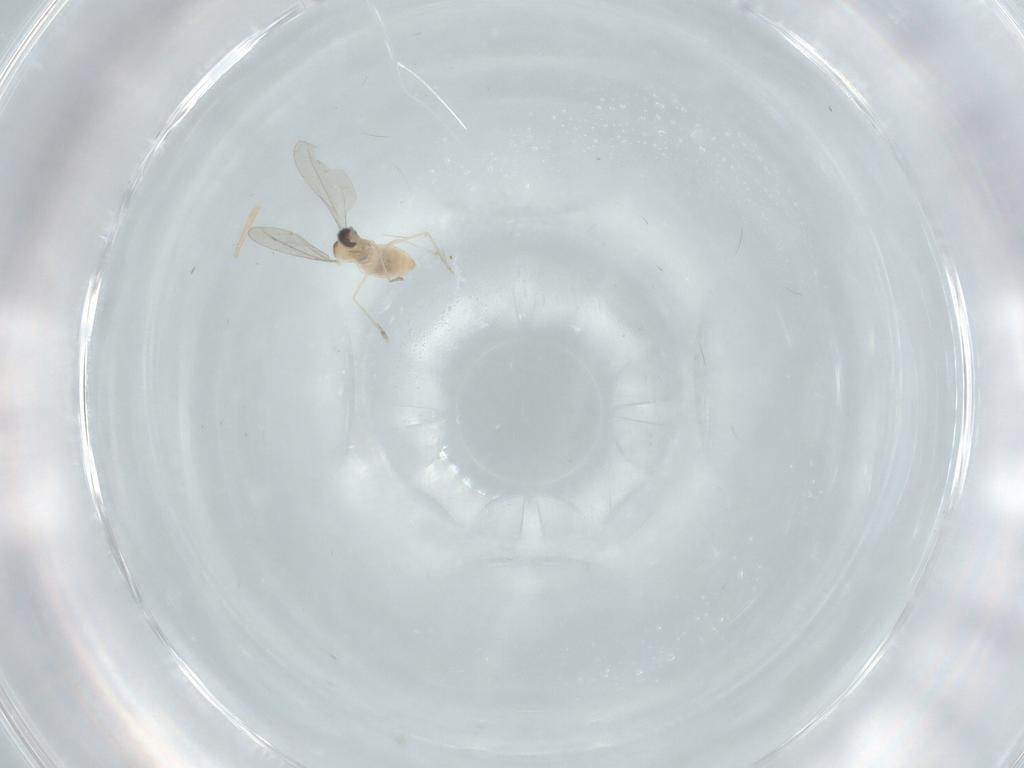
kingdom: Animalia
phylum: Arthropoda
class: Insecta
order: Diptera
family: Cecidomyiidae
